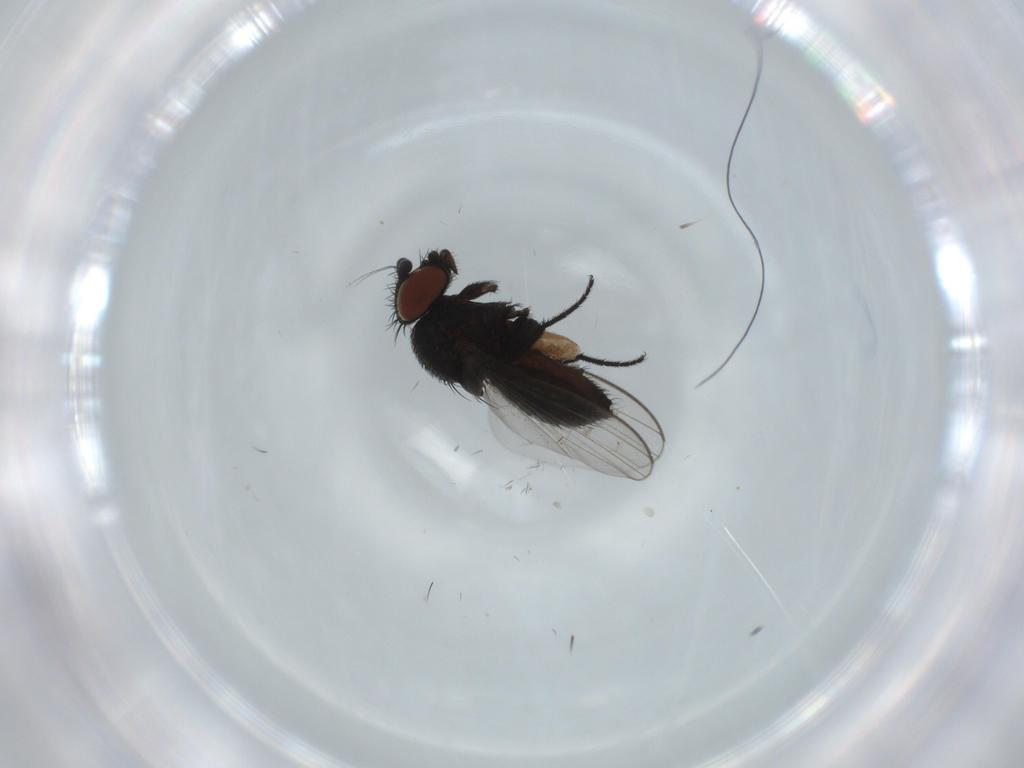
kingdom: Animalia
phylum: Arthropoda
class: Insecta
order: Diptera
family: Milichiidae
